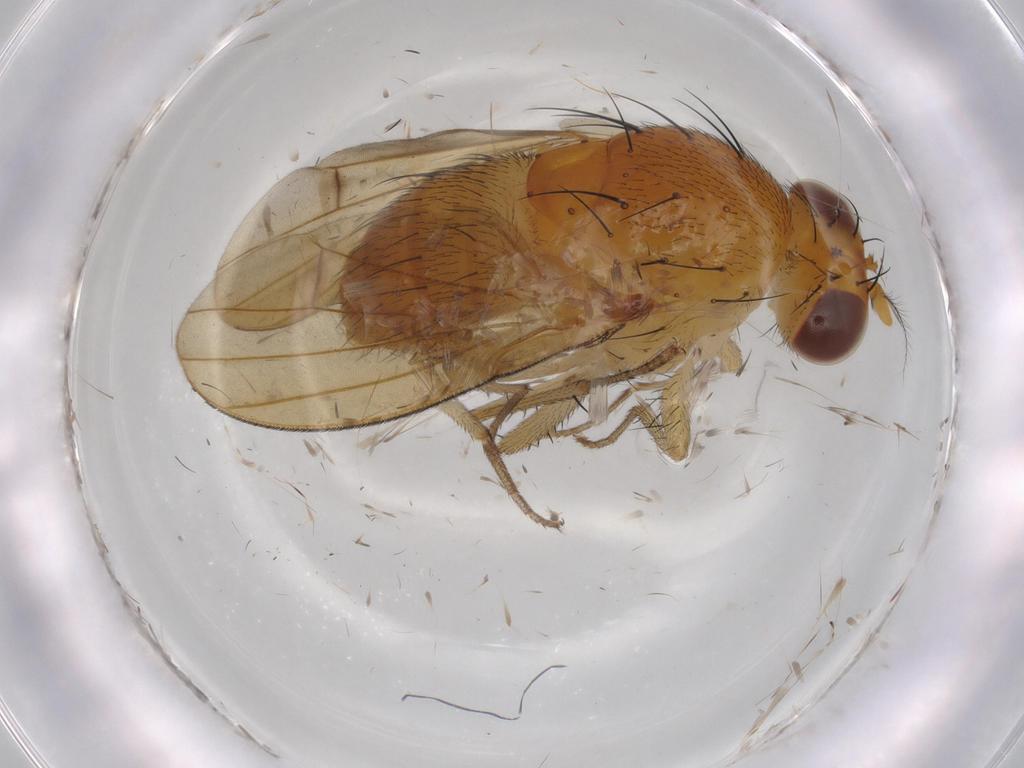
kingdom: Animalia
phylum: Arthropoda
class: Insecta
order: Diptera
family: Lauxaniidae
